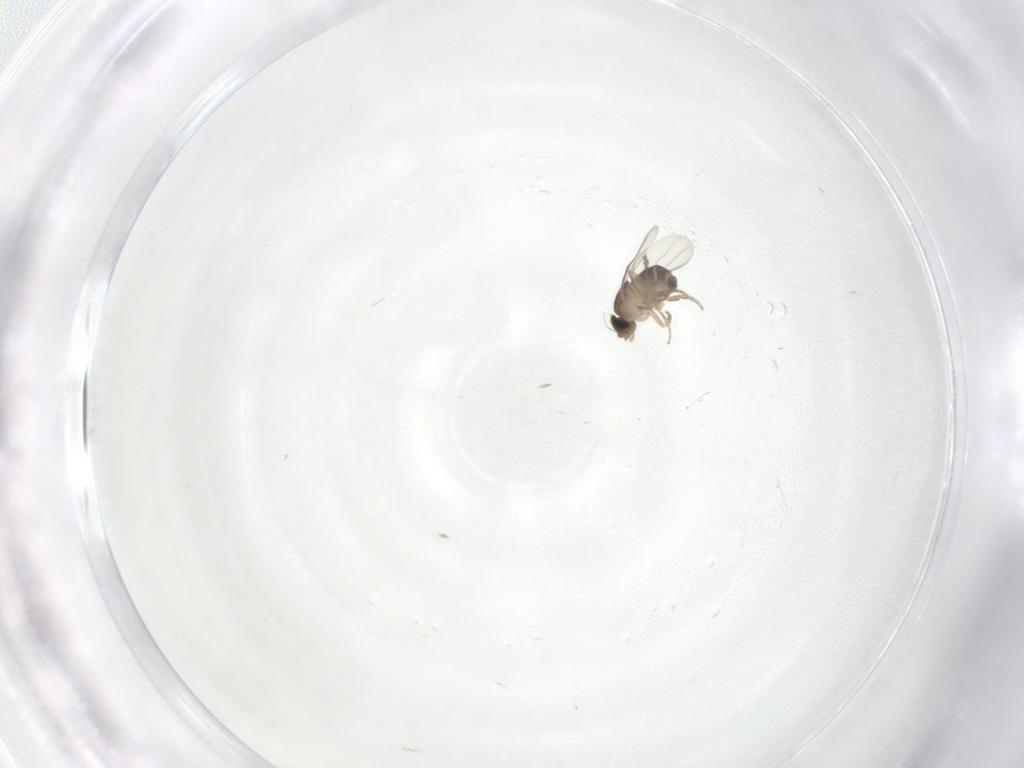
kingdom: Animalia
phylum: Arthropoda
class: Insecta
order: Diptera
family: Phoridae
